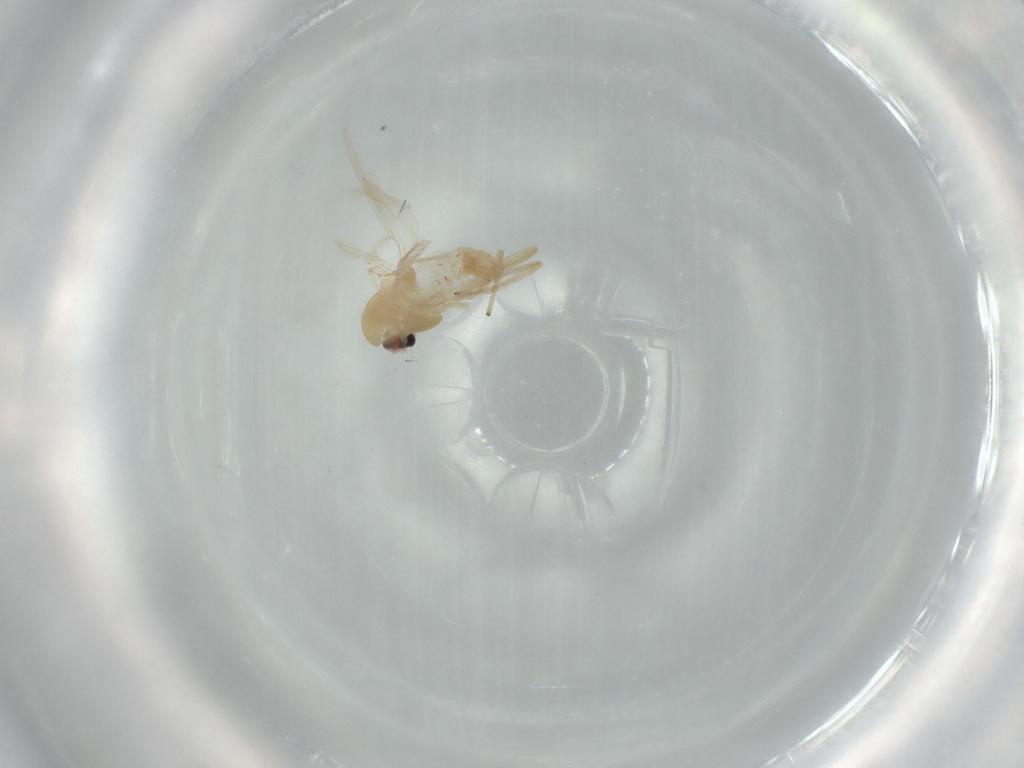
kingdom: Animalia
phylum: Arthropoda
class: Insecta
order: Diptera
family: Chironomidae
